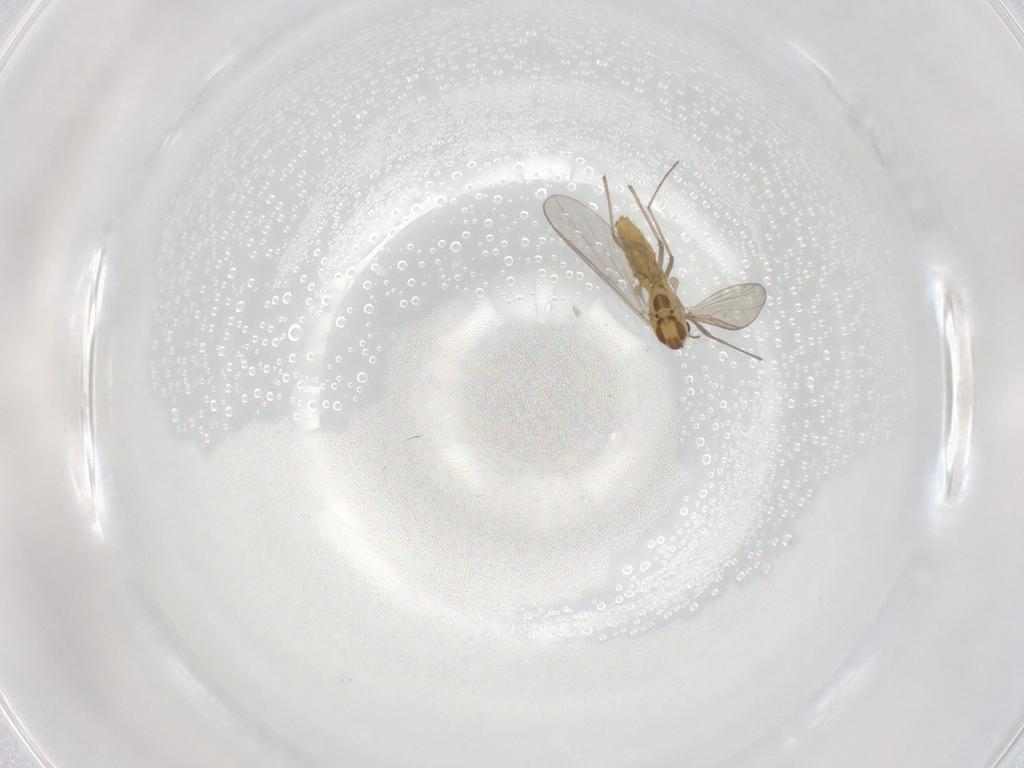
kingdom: Animalia
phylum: Arthropoda
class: Insecta
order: Diptera
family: Chironomidae
